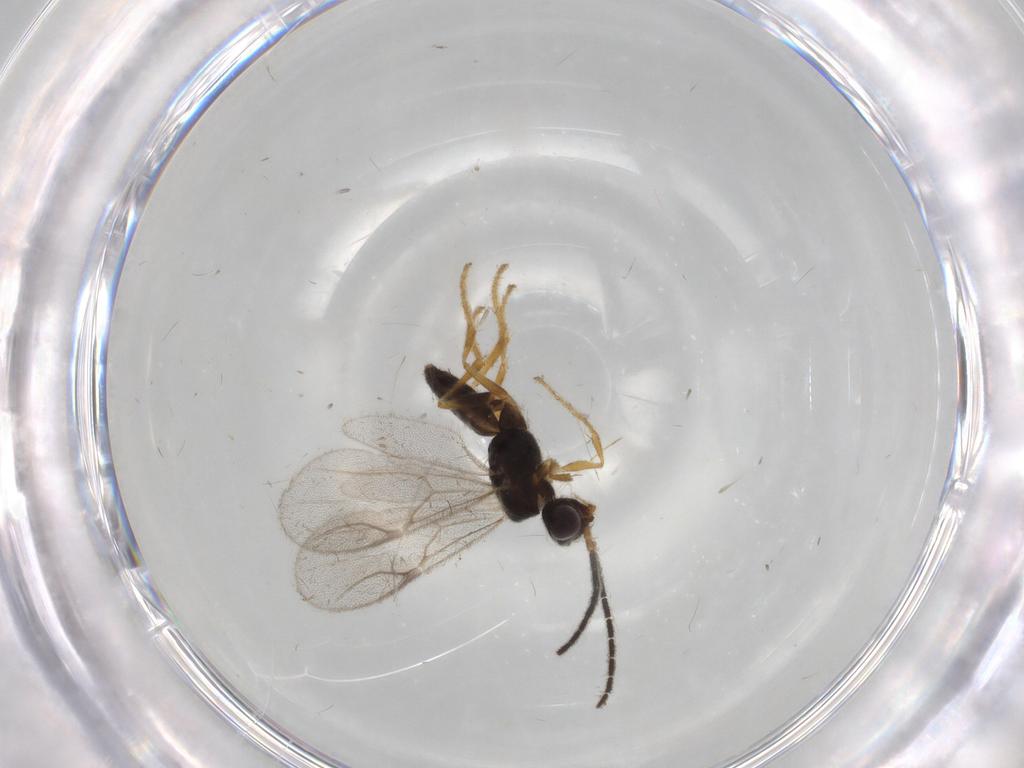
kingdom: Animalia
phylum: Arthropoda
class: Insecta
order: Hymenoptera
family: Dryinidae
